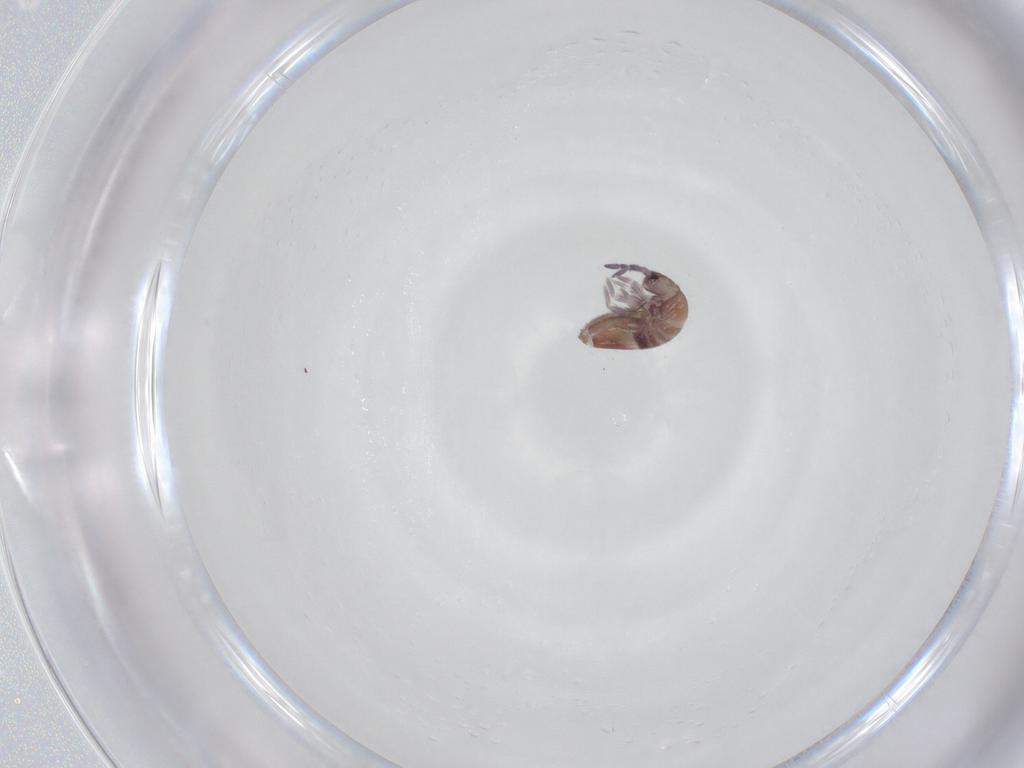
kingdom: Animalia
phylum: Arthropoda
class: Collembola
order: Entomobryomorpha
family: Entomobryidae
